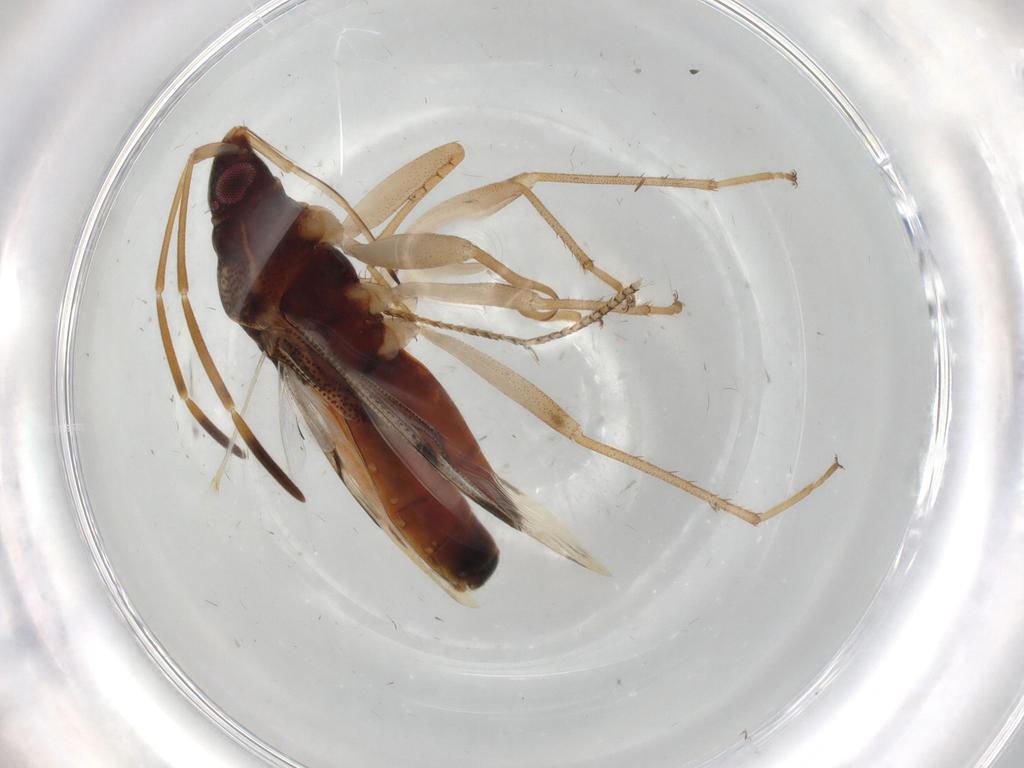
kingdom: Animalia
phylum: Arthropoda
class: Insecta
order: Hemiptera
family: Rhyparochromidae
